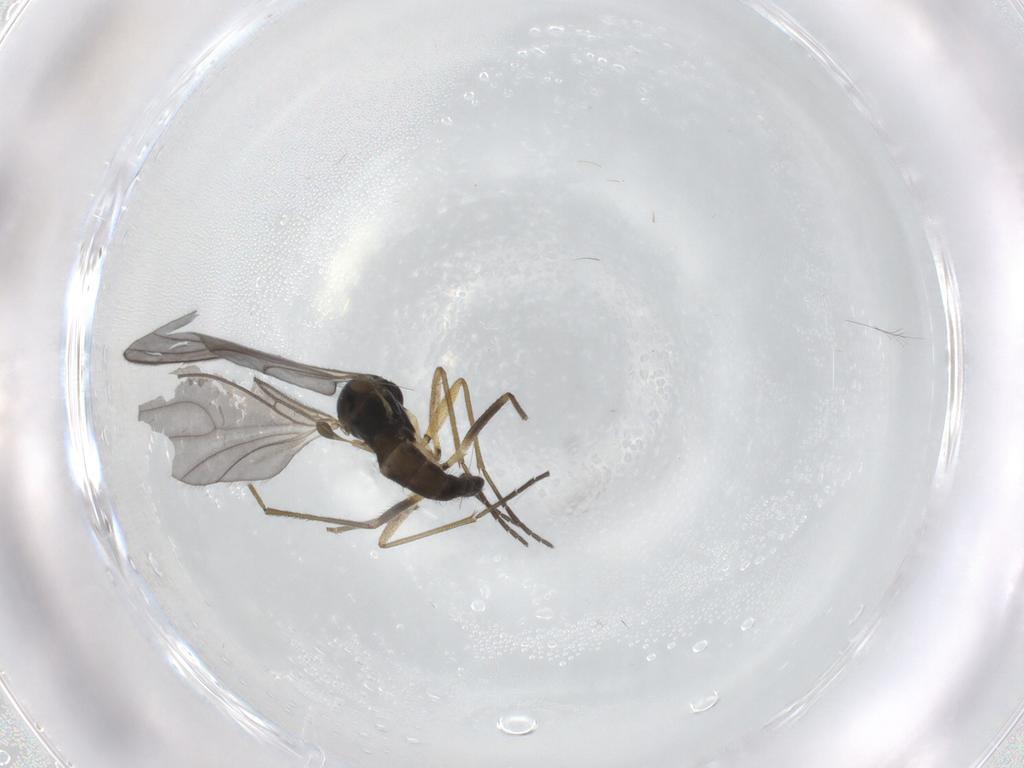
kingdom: Animalia
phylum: Arthropoda
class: Insecta
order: Diptera
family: Sciaridae
